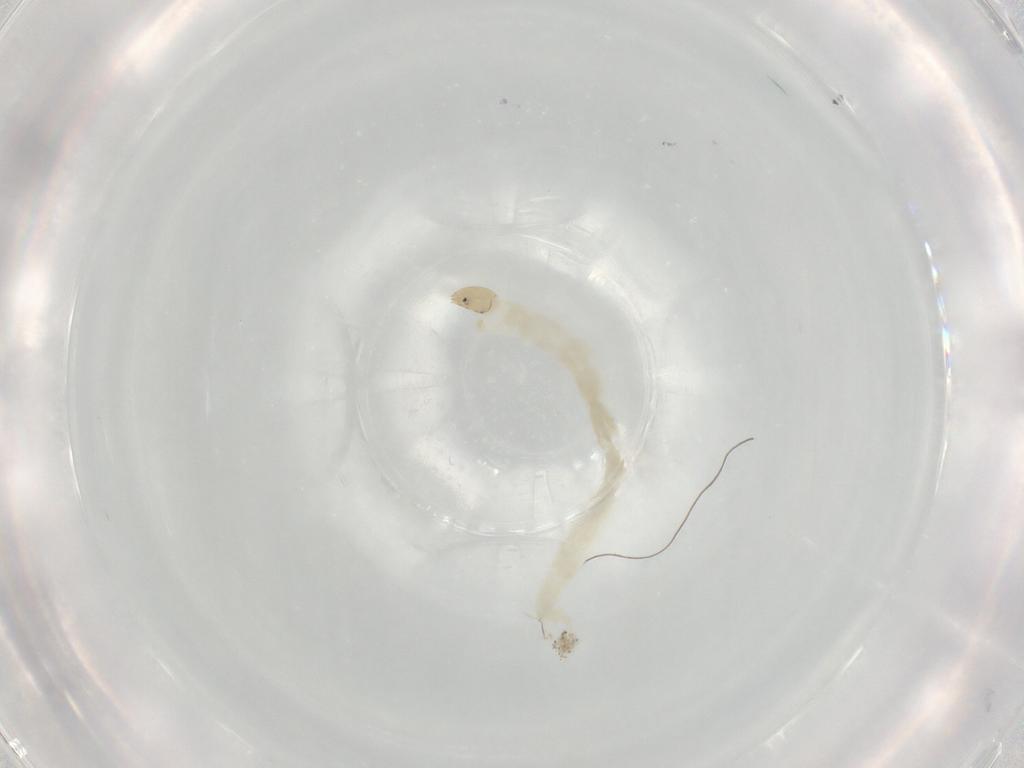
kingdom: Animalia
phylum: Arthropoda
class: Insecta
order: Diptera
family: Chironomidae
